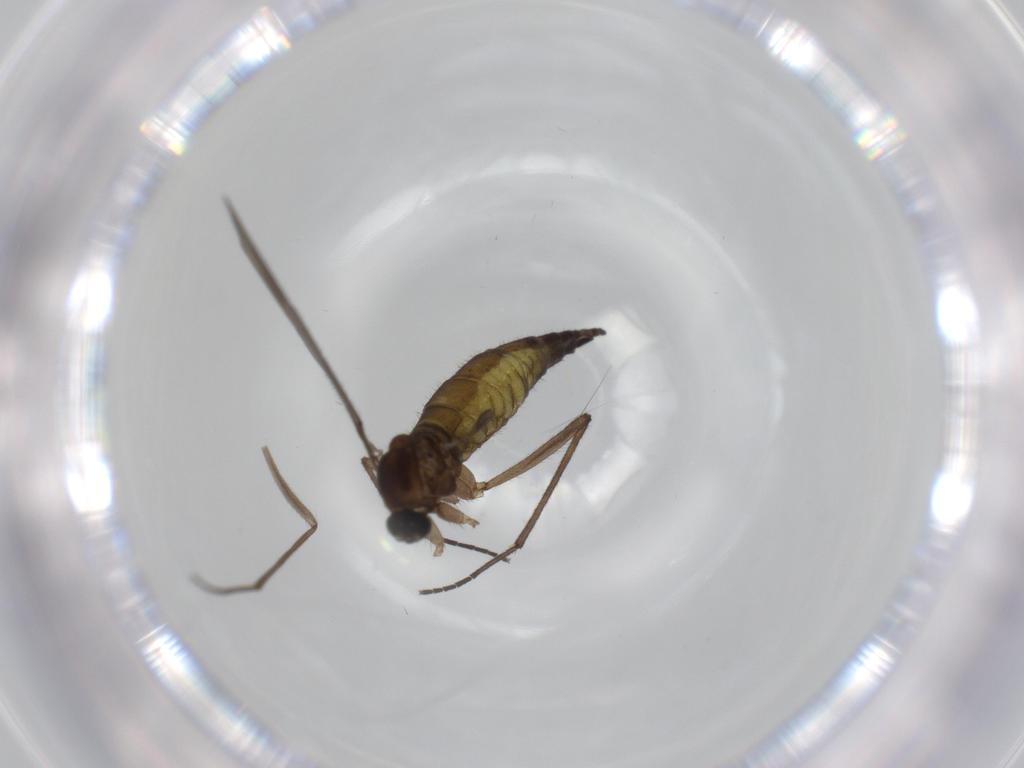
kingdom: Animalia
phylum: Arthropoda
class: Insecta
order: Diptera
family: Sciaridae
